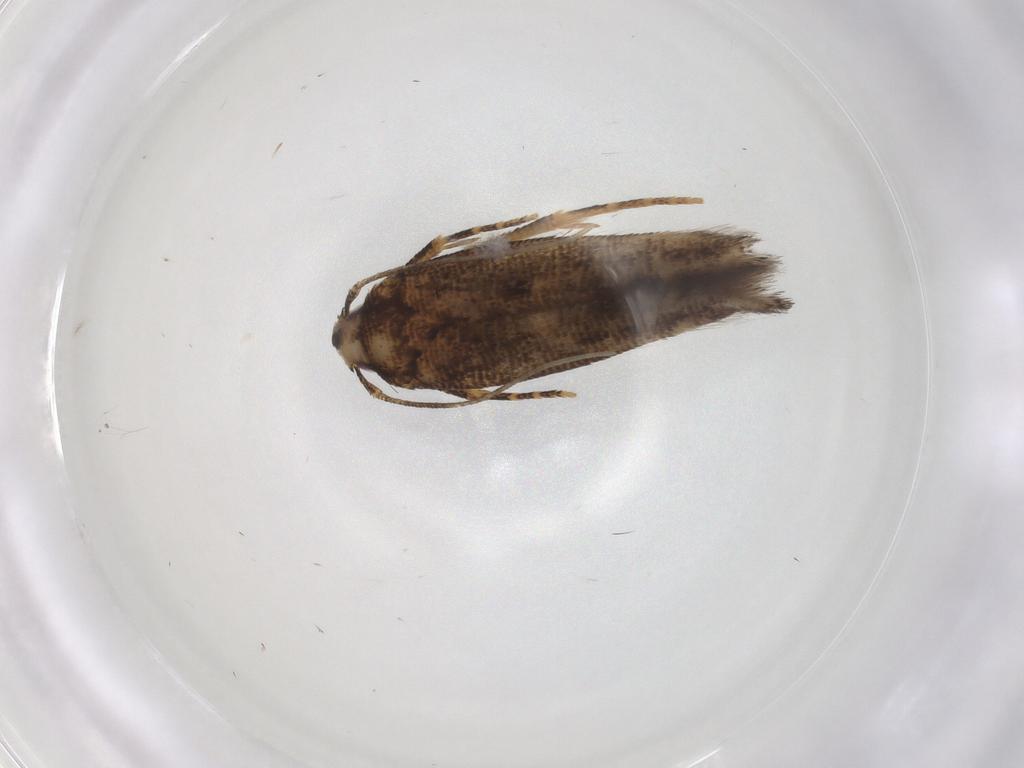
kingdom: Animalia
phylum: Arthropoda
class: Insecta
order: Lepidoptera
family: Cosmopterigidae
